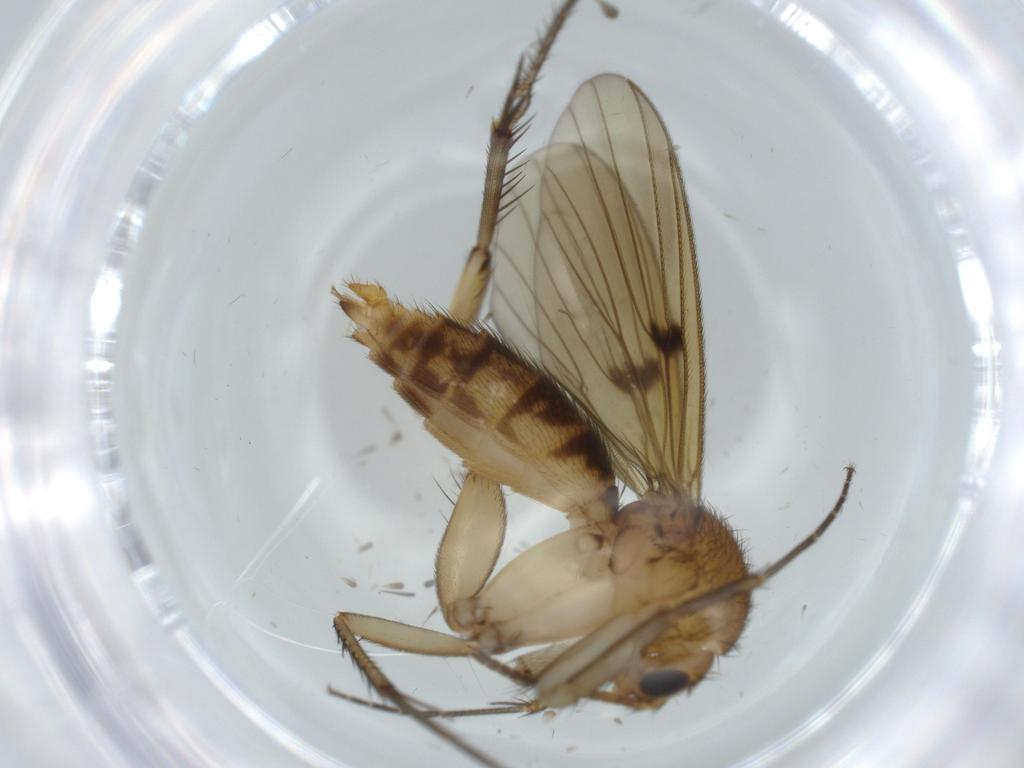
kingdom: Animalia
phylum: Arthropoda
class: Insecta
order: Diptera
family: Mycetophilidae
